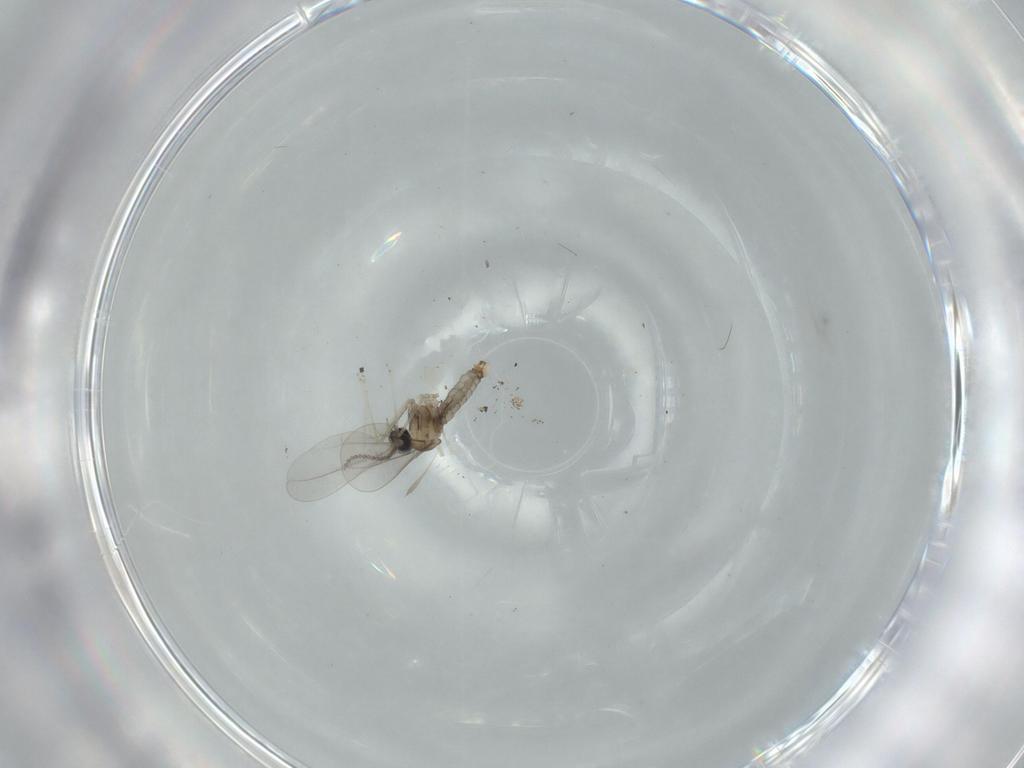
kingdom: Animalia
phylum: Arthropoda
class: Insecta
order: Diptera
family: Cecidomyiidae
